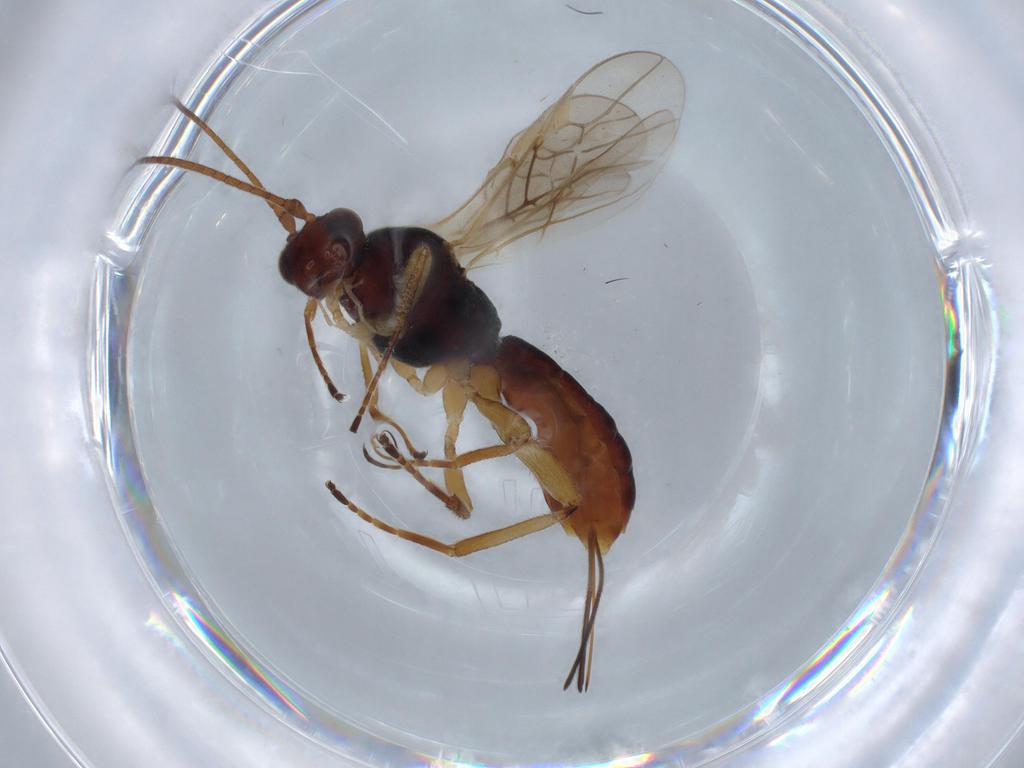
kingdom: Animalia
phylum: Arthropoda
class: Insecta
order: Hymenoptera
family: Braconidae
